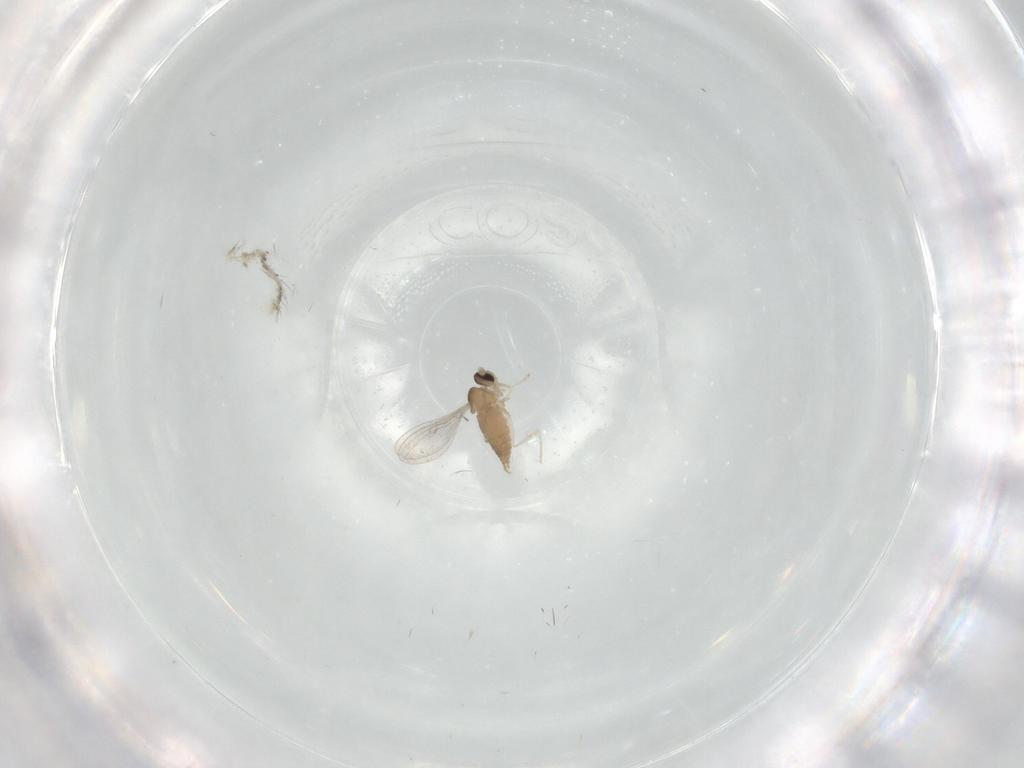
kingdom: Animalia
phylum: Arthropoda
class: Insecta
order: Diptera
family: Cecidomyiidae
